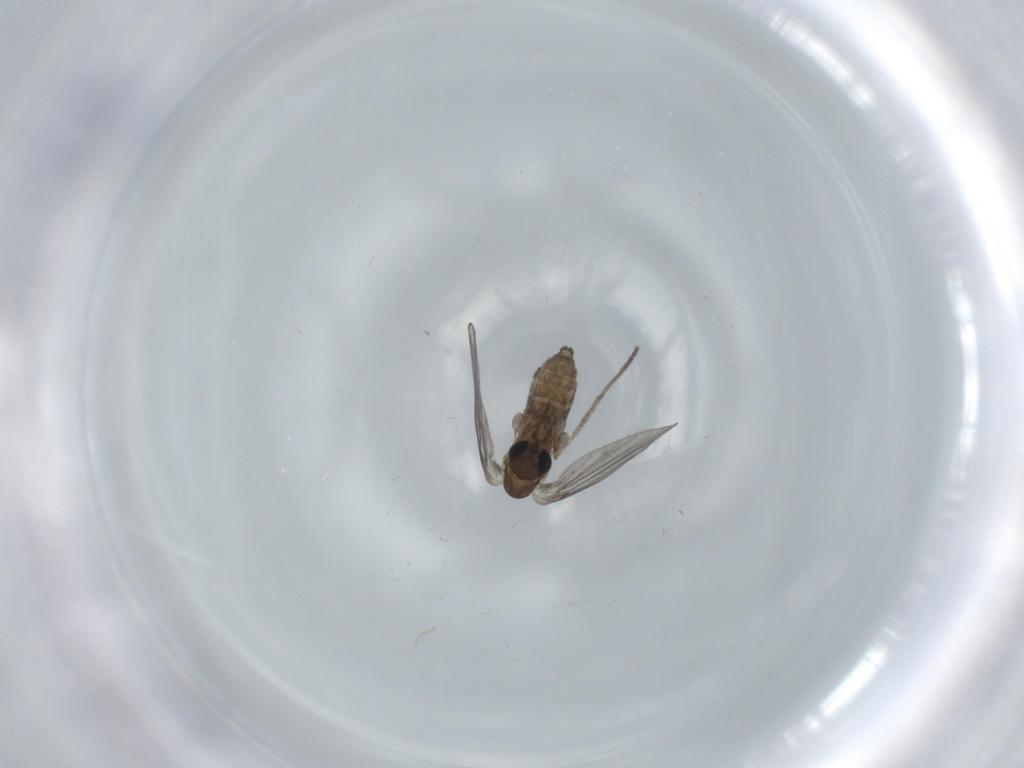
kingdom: Animalia
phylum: Arthropoda
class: Insecta
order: Diptera
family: Psychodidae
